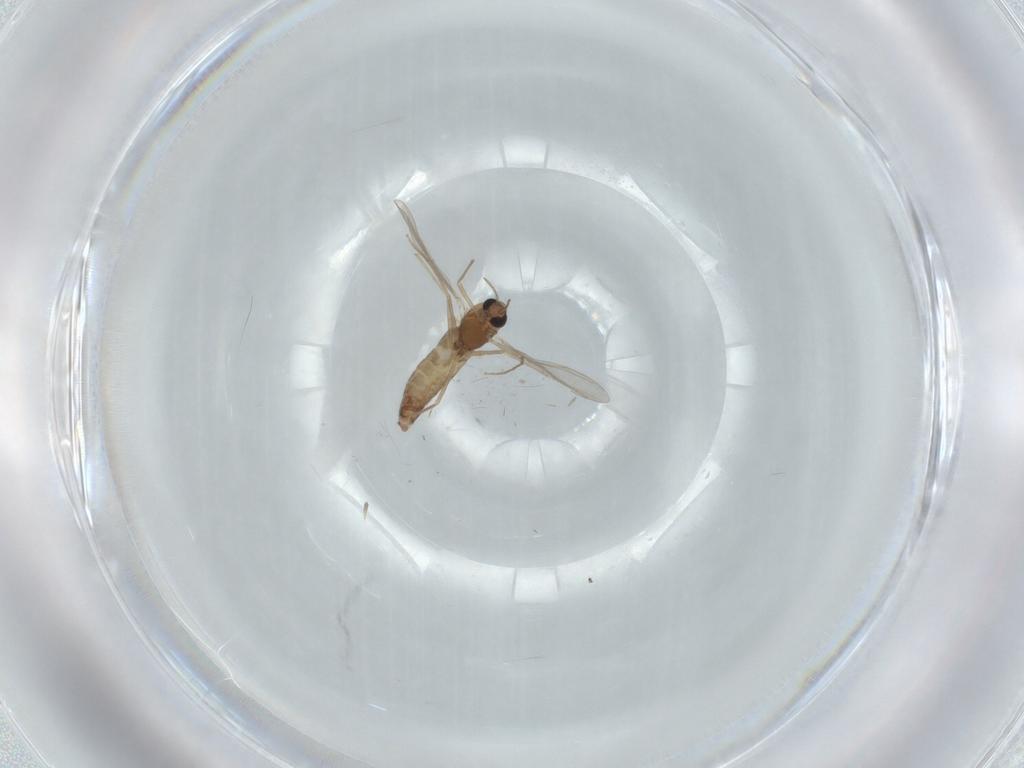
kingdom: Animalia
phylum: Arthropoda
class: Insecta
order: Diptera
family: Chironomidae
